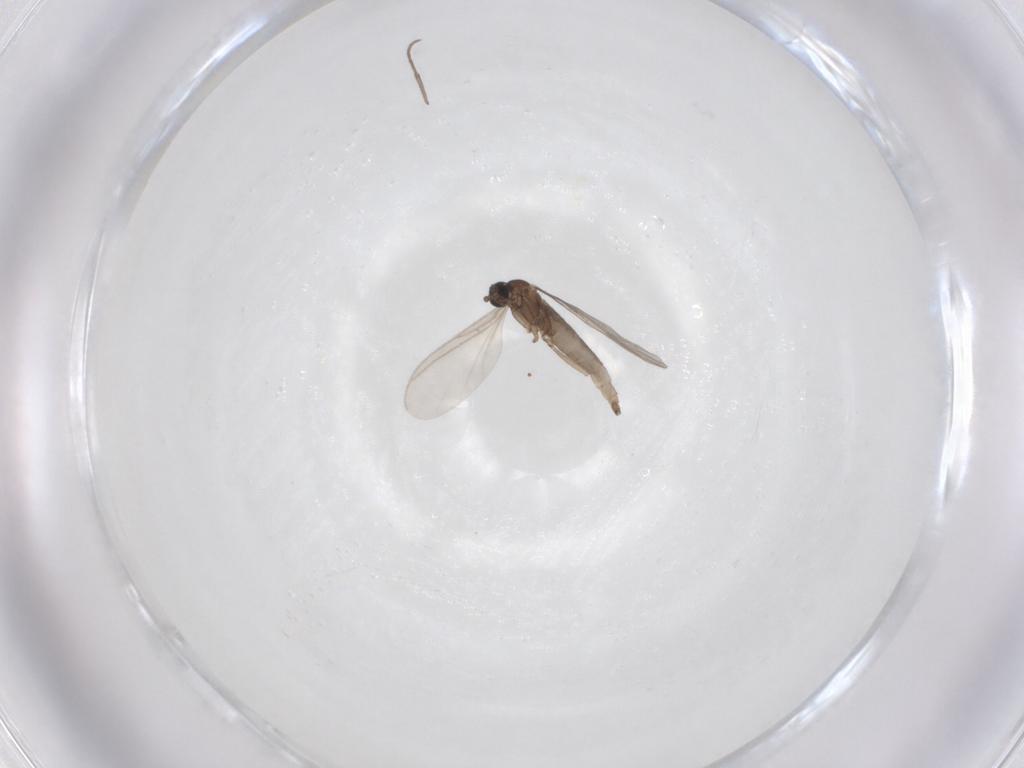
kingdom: Animalia
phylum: Arthropoda
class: Insecta
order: Diptera
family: Sciaridae
